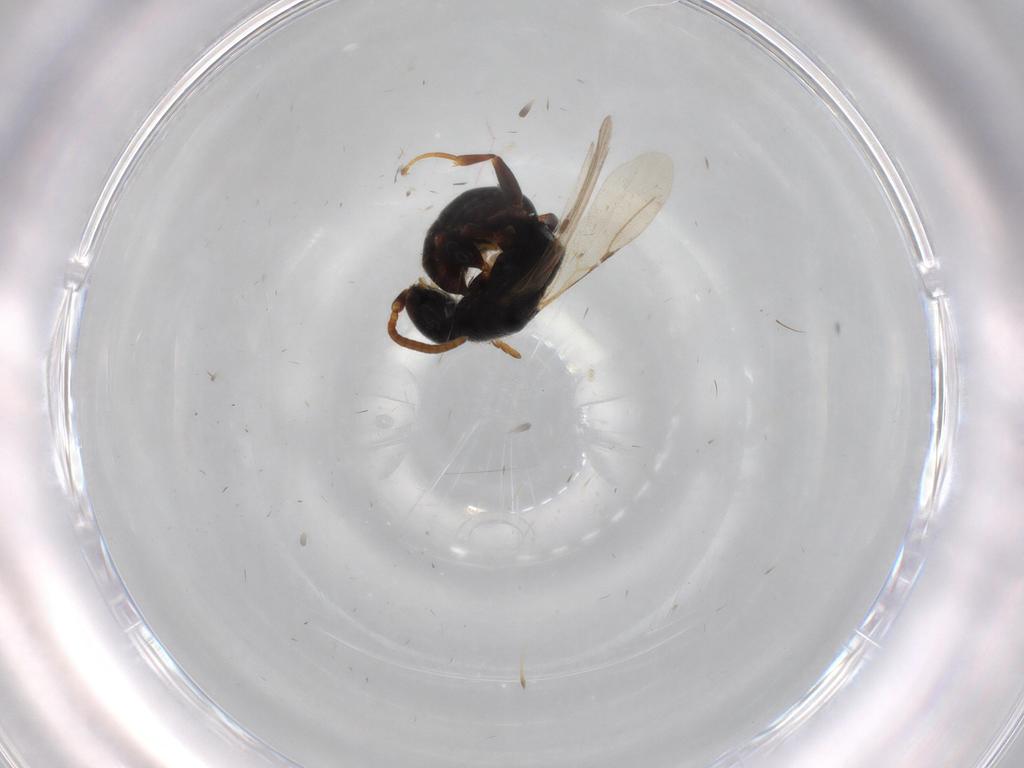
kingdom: Animalia
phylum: Arthropoda
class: Insecta
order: Hymenoptera
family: Bethylidae
